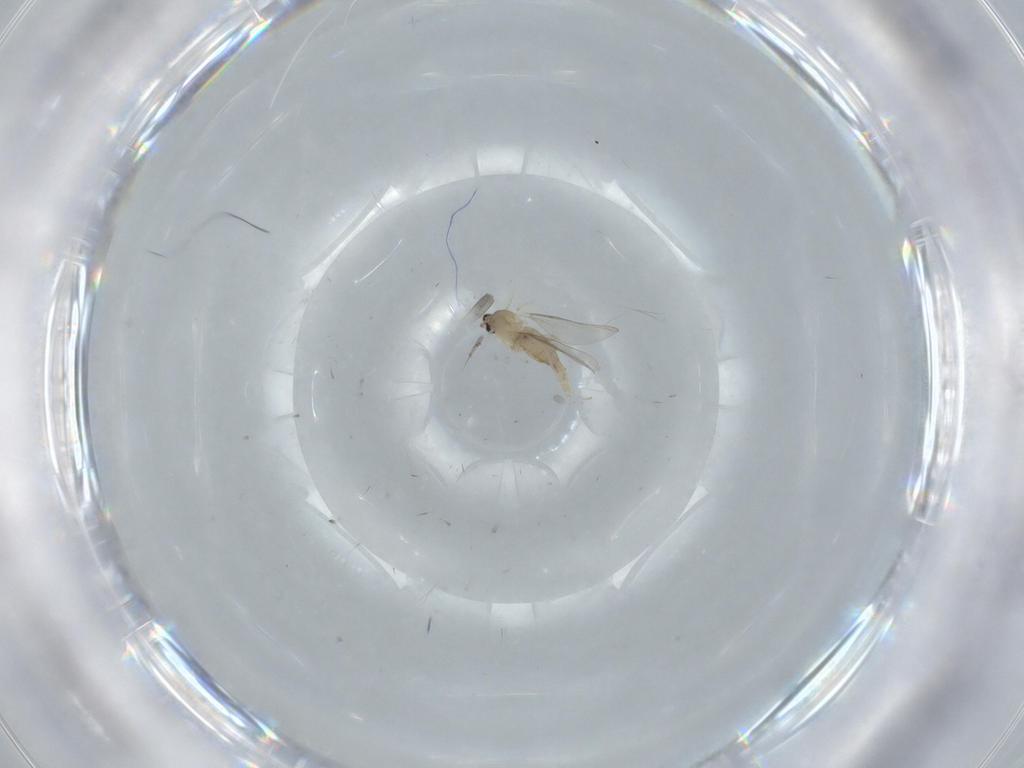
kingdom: Animalia
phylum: Arthropoda
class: Insecta
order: Diptera
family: Cecidomyiidae
